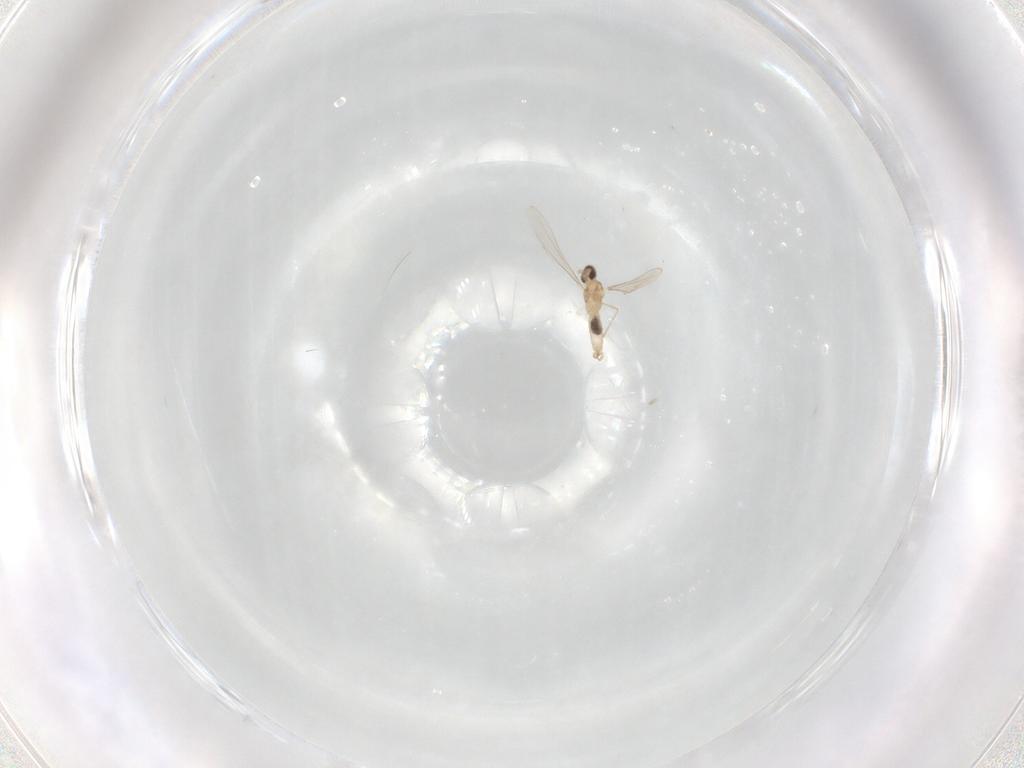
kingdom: Animalia
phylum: Arthropoda
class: Insecta
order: Diptera
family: Cecidomyiidae
